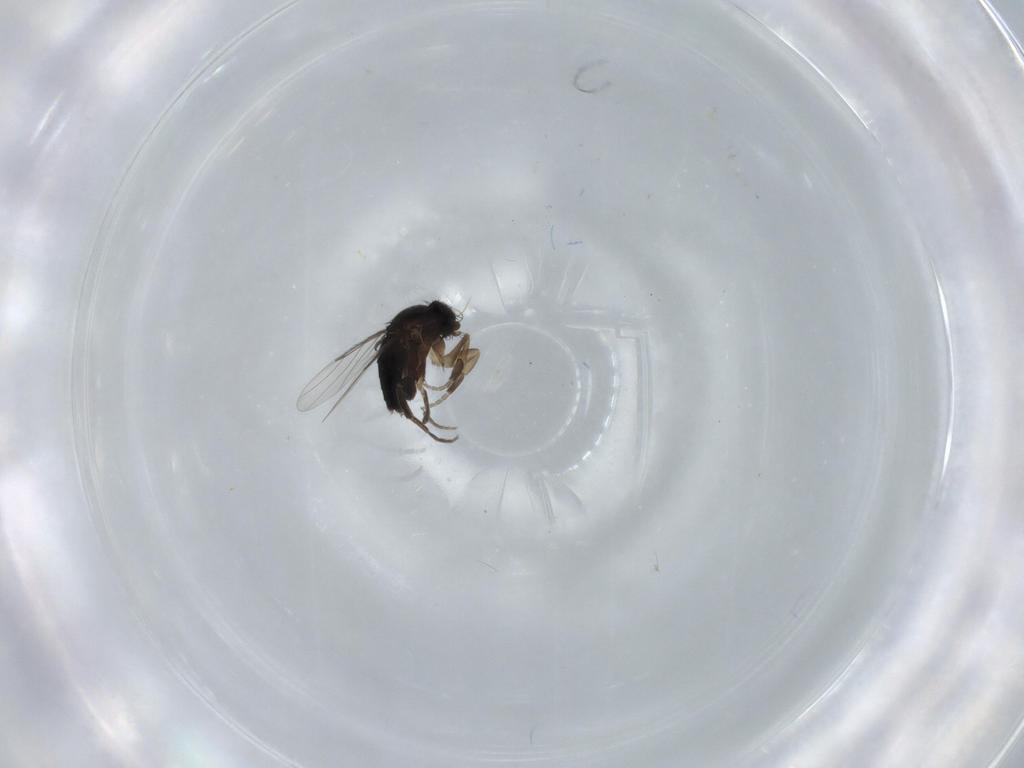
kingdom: Animalia
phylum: Arthropoda
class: Insecta
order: Diptera
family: Phoridae
